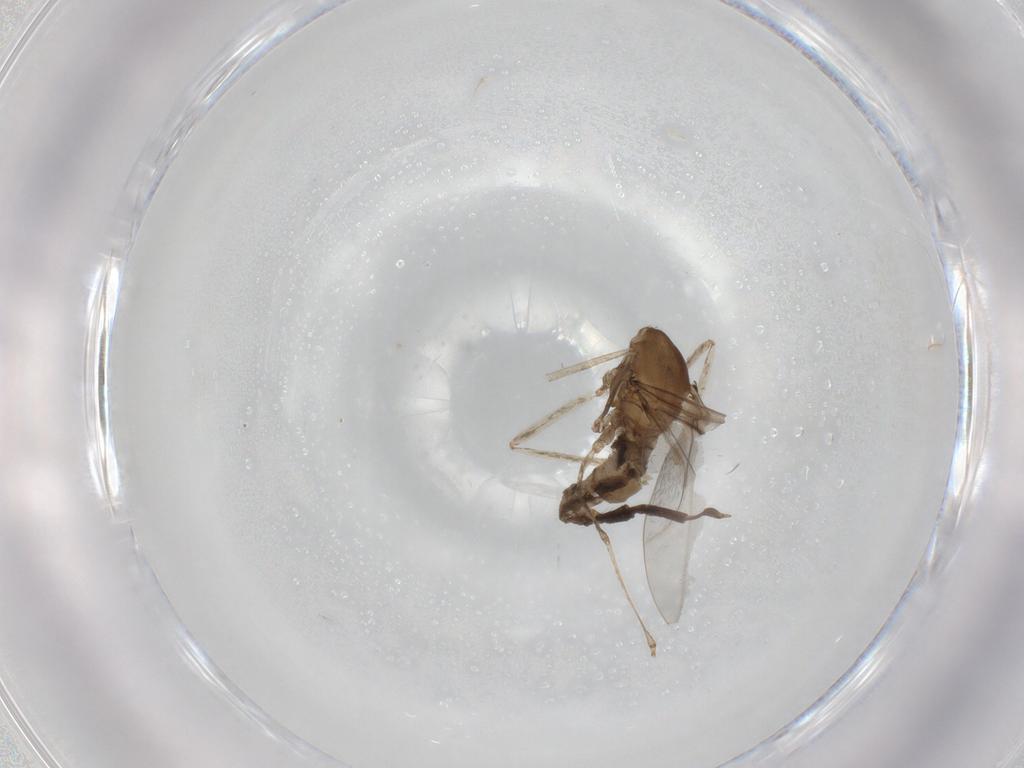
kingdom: Animalia
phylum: Arthropoda
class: Insecta
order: Diptera
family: Cecidomyiidae
